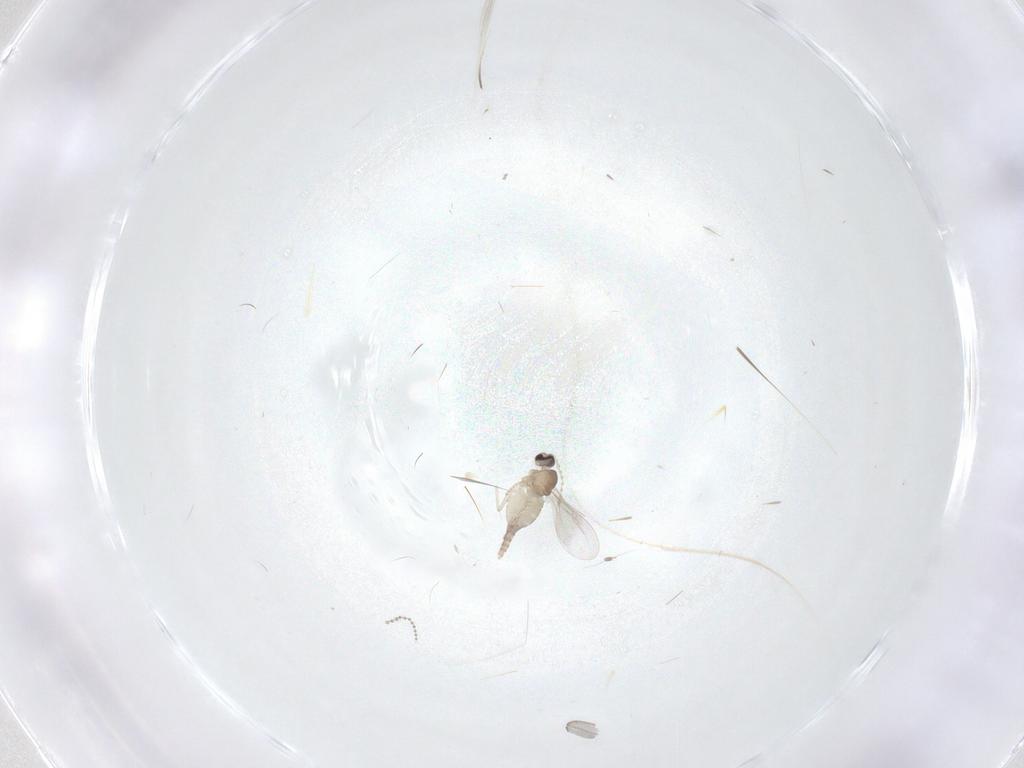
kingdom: Animalia
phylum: Arthropoda
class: Insecta
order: Diptera
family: Cecidomyiidae
